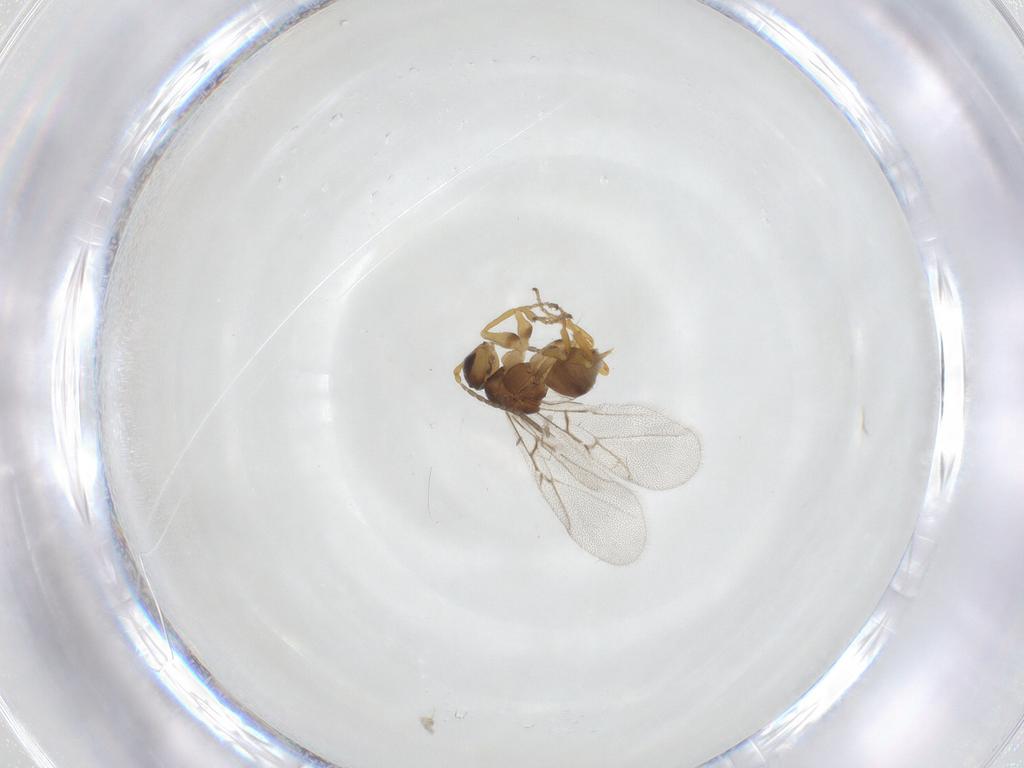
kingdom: Animalia
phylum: Arthropoda
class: Insecta
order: Hymenoptera
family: Cynipidae
